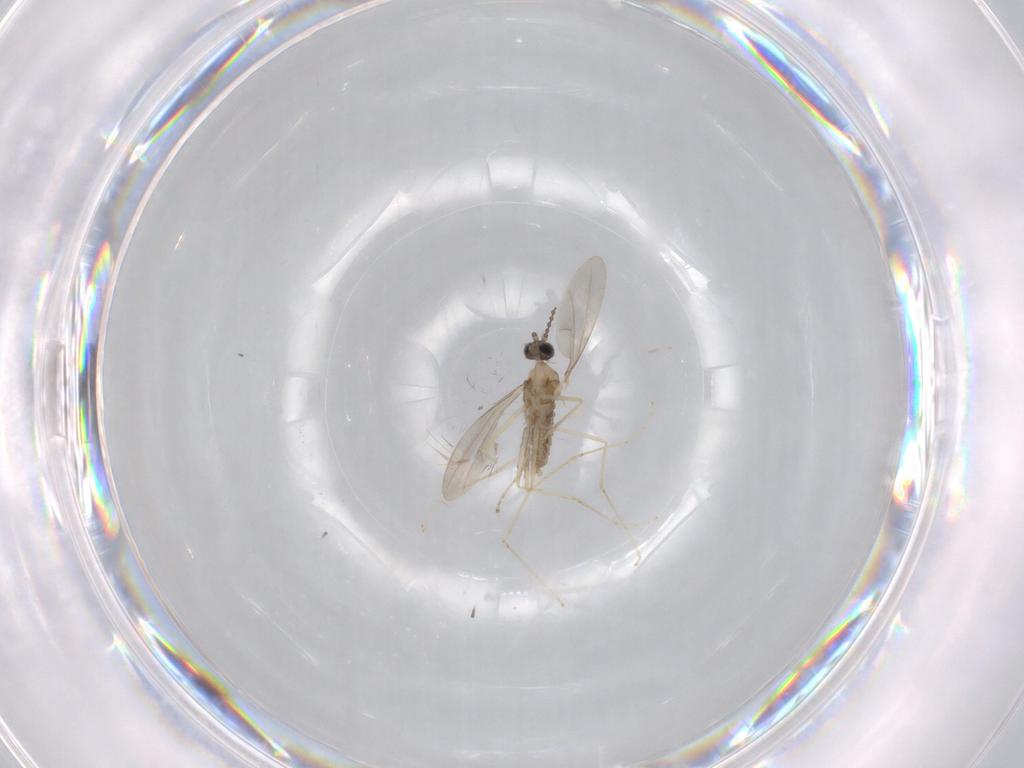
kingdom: Animalia
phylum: Arthropoda
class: Insecta
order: Diptera
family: Cecidomyiidae
